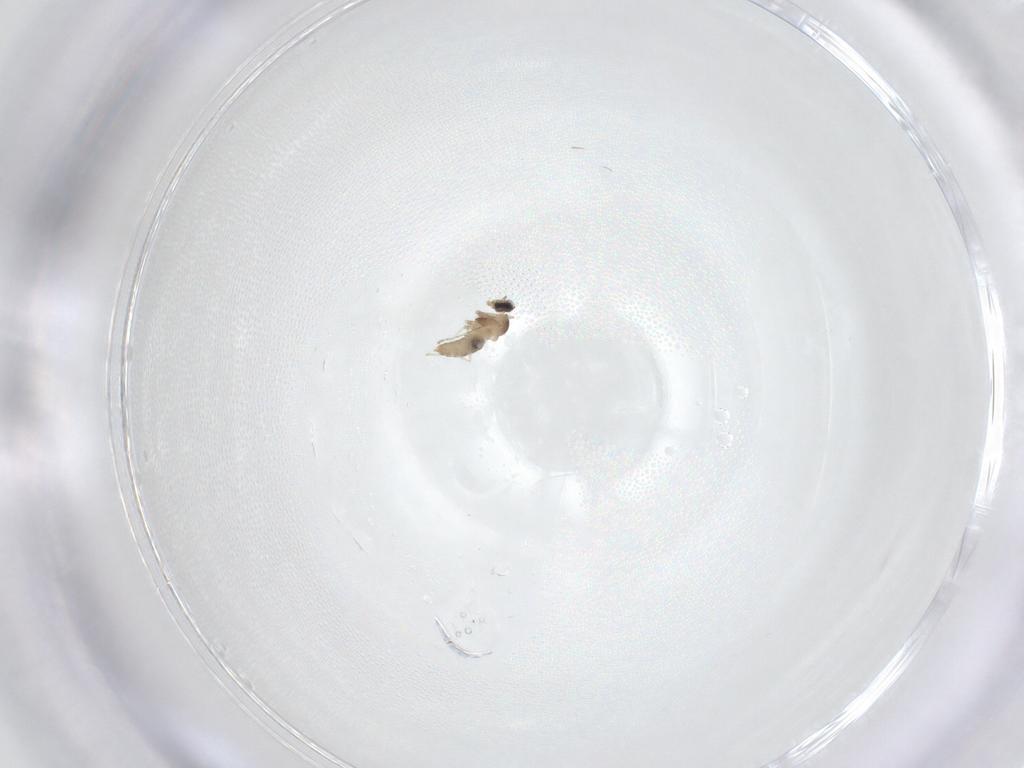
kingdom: Animalia
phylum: Arthropoda
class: Insecta
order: Diptera
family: Cecidomyiidae
